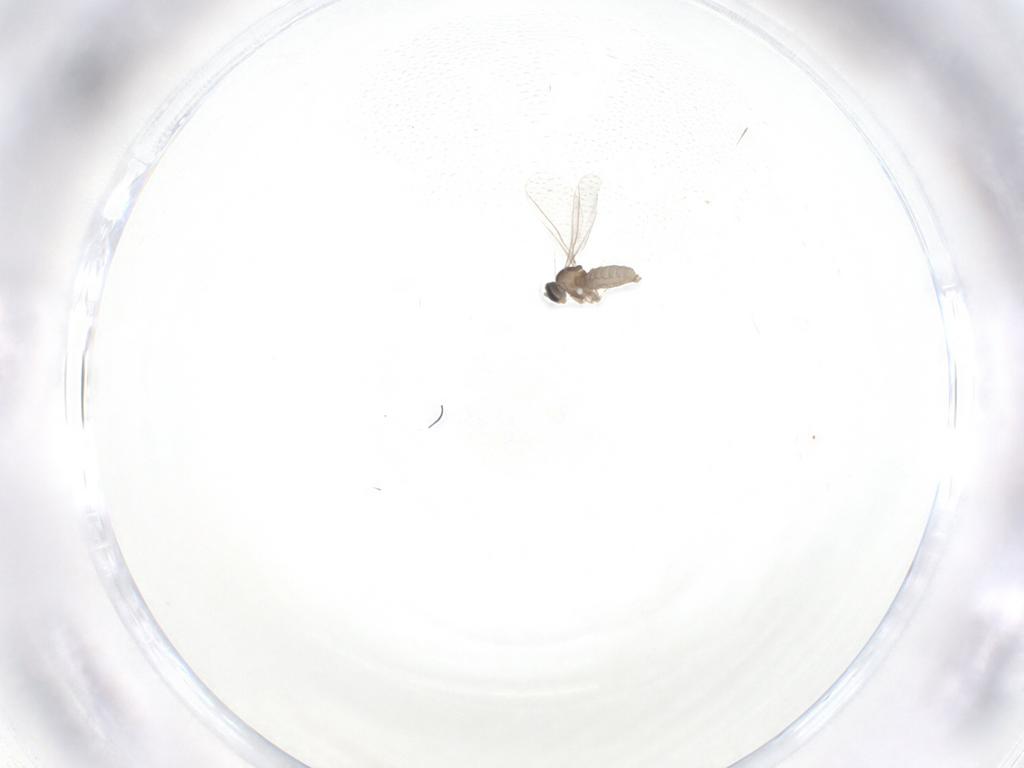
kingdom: Animalia
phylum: Arthropoda
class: Insecta
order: Diptera
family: Cecidomyiidae
